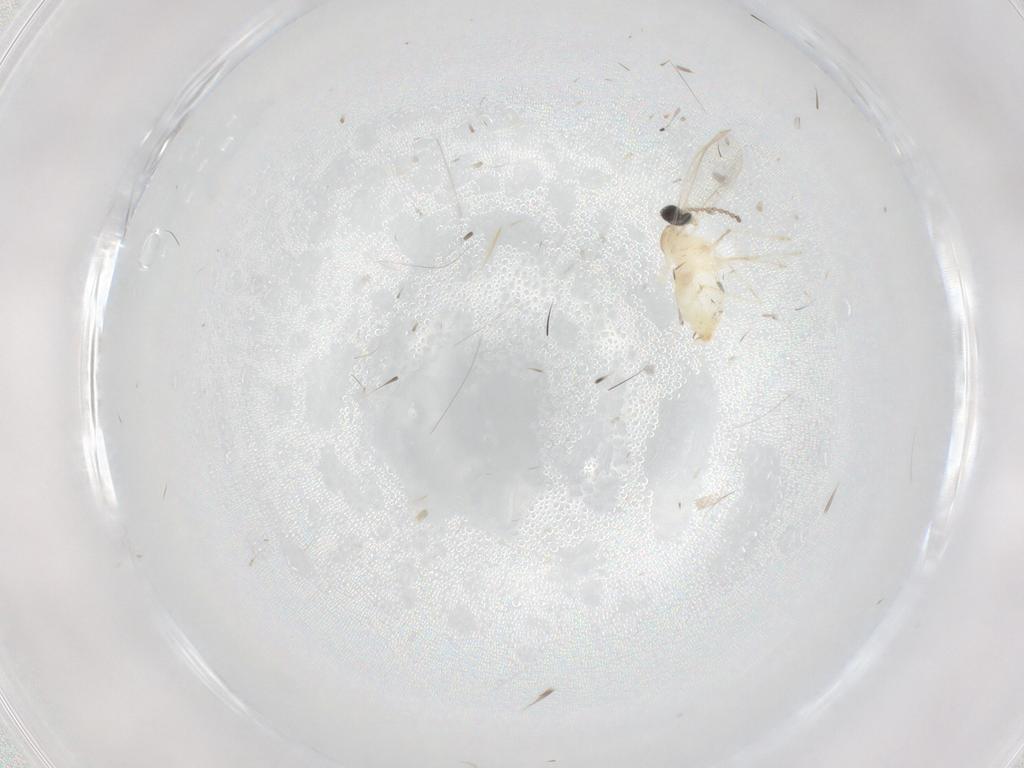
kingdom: Animalia
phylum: Arthropoda
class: Insecta
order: Diptera
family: Cecidomyiidae
